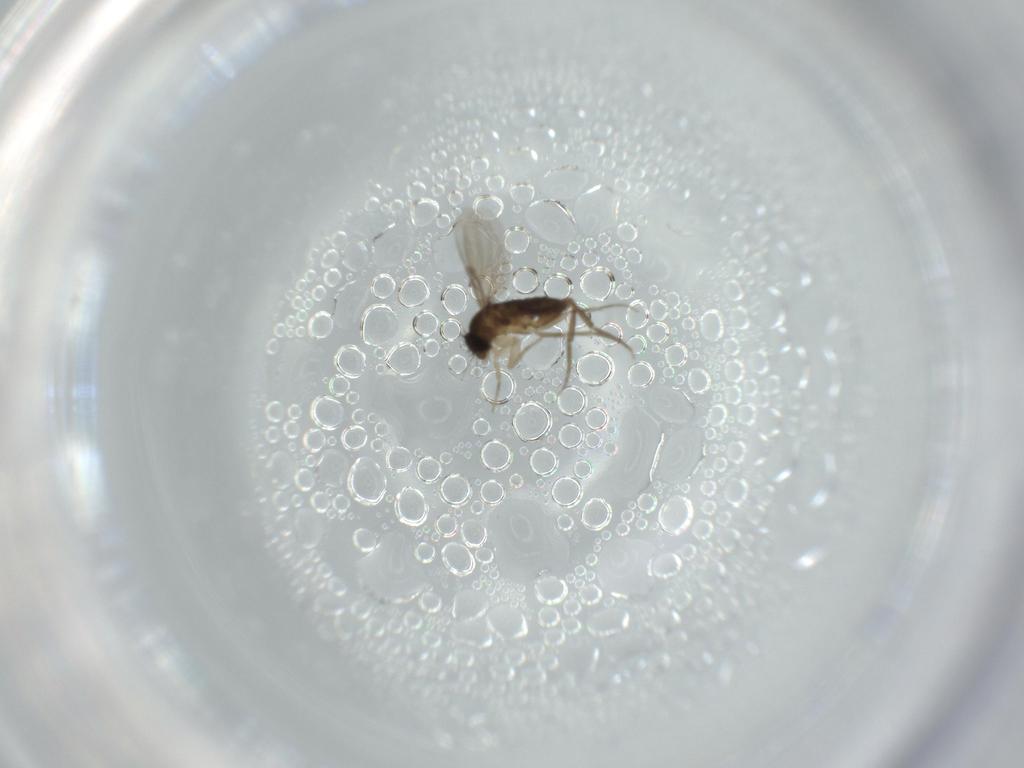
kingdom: Animalia
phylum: Arthropoda
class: Insecta
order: Diptera
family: Phoridae
